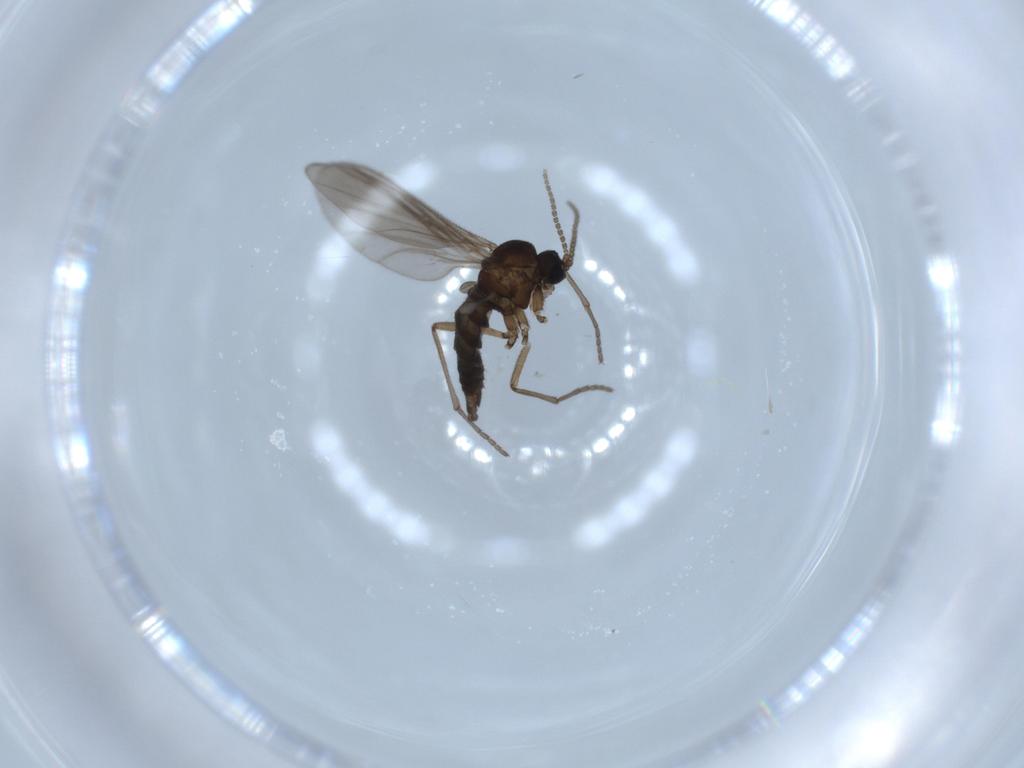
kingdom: Animalia
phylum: Arthropoda
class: Insecta
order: Diptera
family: Sciaridae
